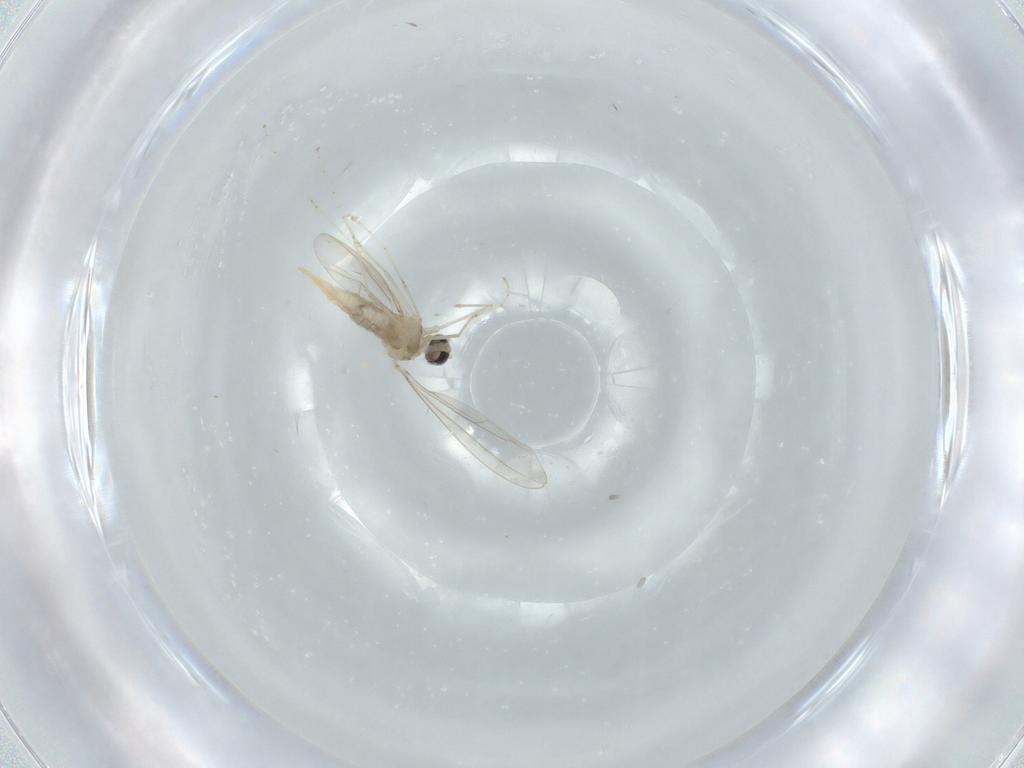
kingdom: Animalia
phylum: Arthropoda
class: Insecta
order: Diptera
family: Cecidomyiidae
